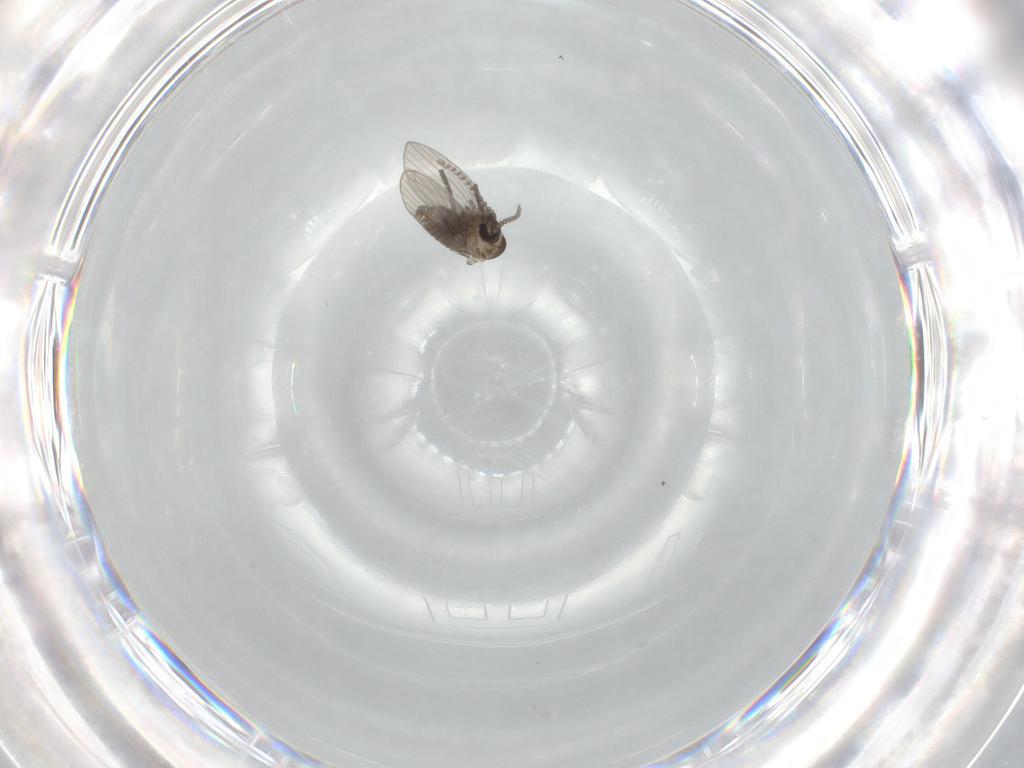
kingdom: Animalia
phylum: Arthropoda
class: Insecta
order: Diptera
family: Psychodidae
